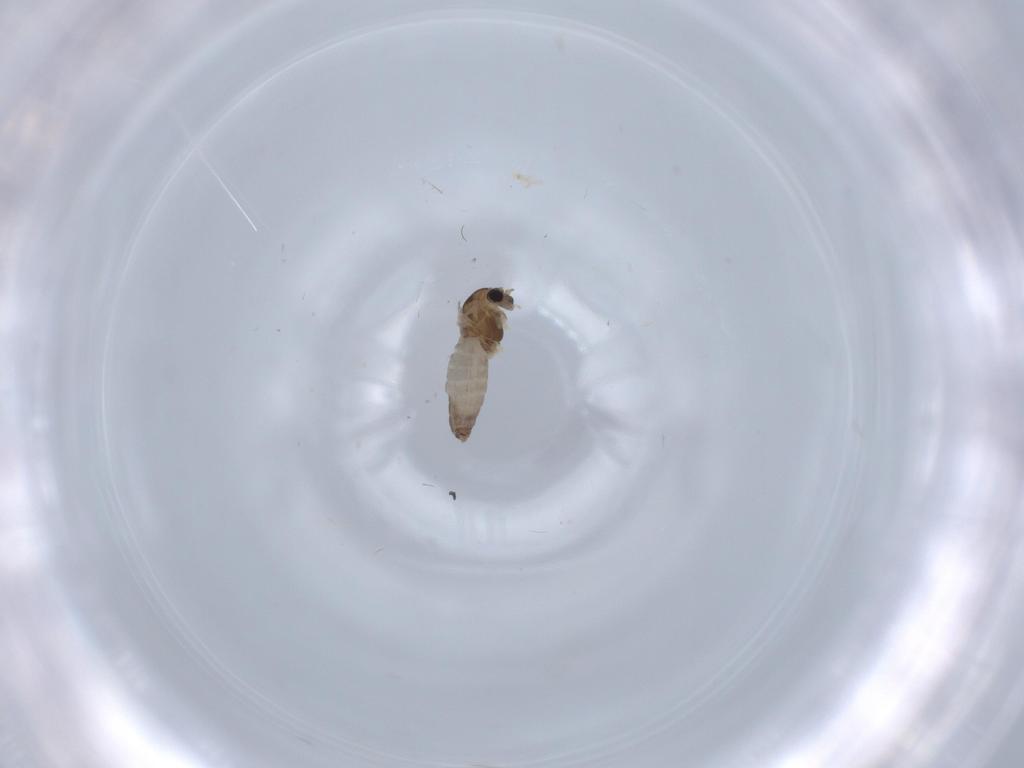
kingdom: Animalia
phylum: Arthropoda
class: Insecta
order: Diptera
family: Chironomidae
